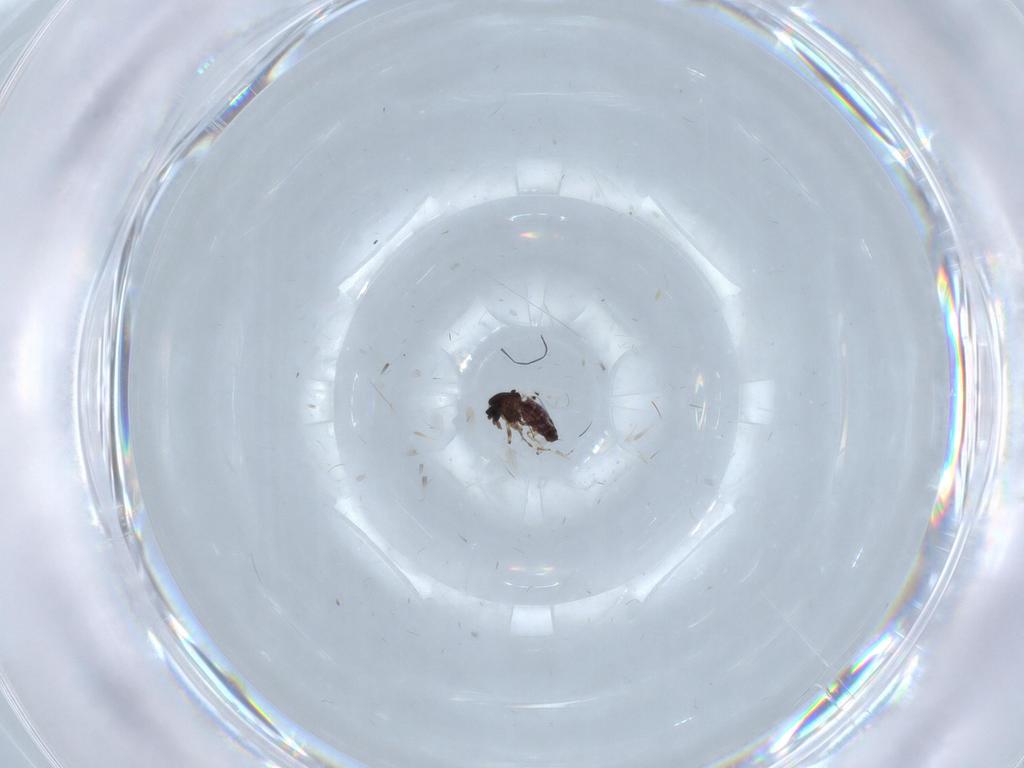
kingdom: Animalia
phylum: Arthropoda
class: Insecta
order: Diptera
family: Ceratopogonidae
